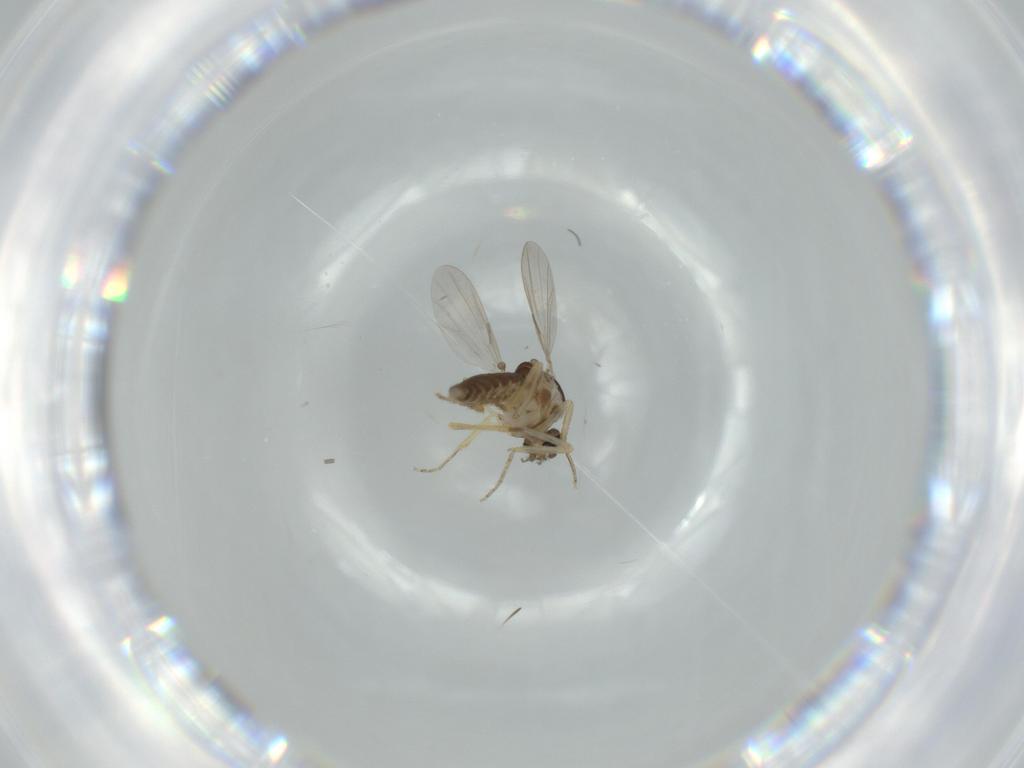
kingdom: Animalia
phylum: Arthropoda
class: Insecta
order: Diptera
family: Ceratopogonidae
